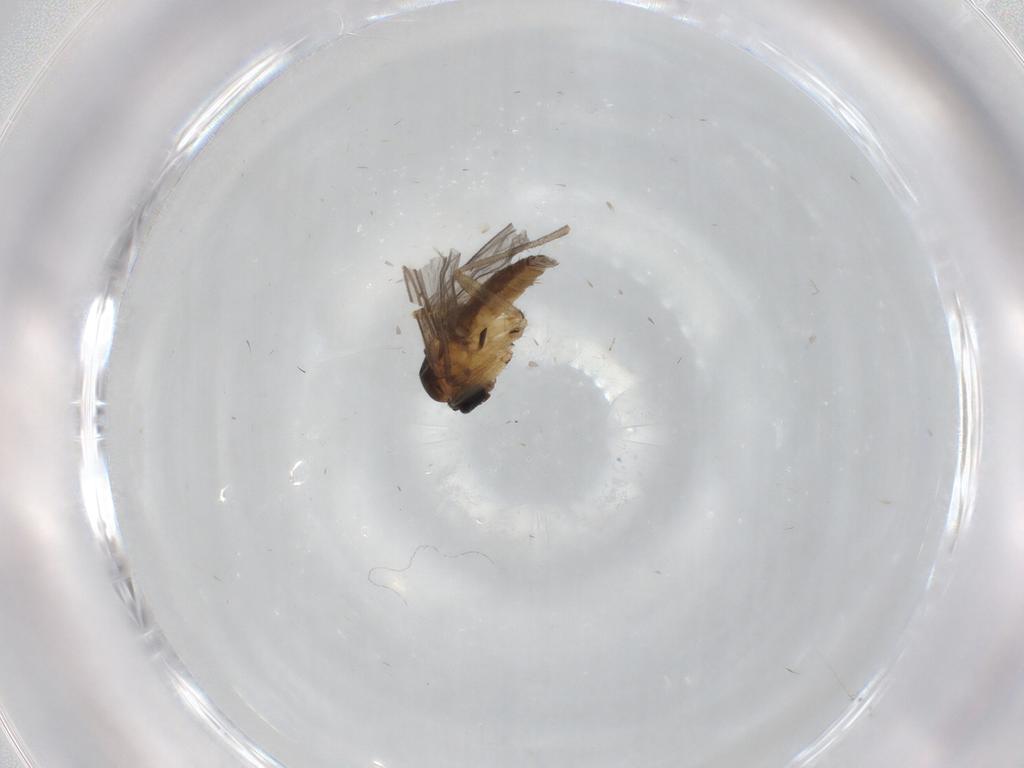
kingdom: Animalia
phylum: Arthropoda
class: Insecta
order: Diptera
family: Sciaridae
